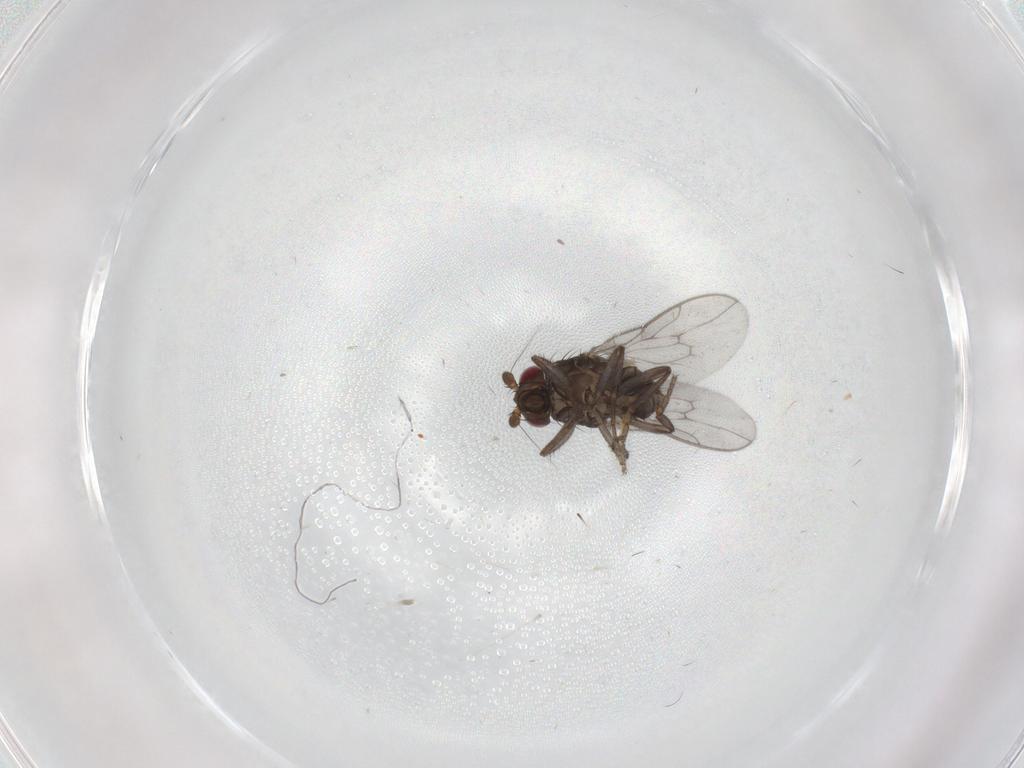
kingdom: Animalia
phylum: Arthropoda
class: Insecta
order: Diptera
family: Sphaeroceridae
